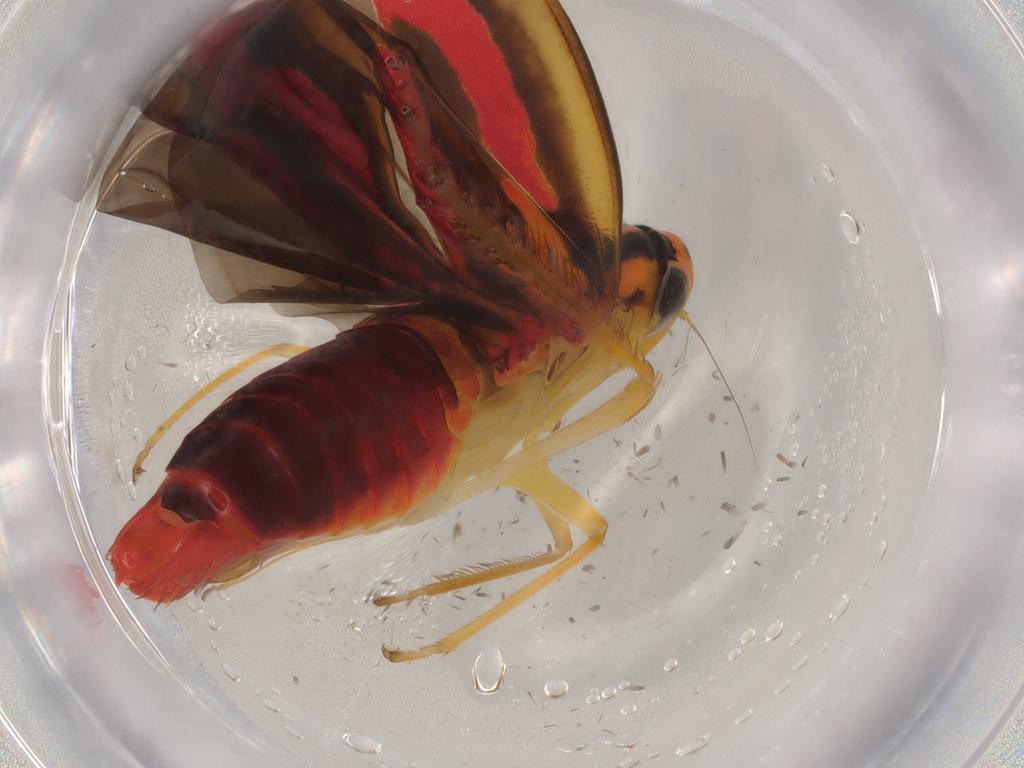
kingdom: Animalia
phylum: Arthropoda
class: Insecta
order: Hemiptera
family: Cicadellidae
